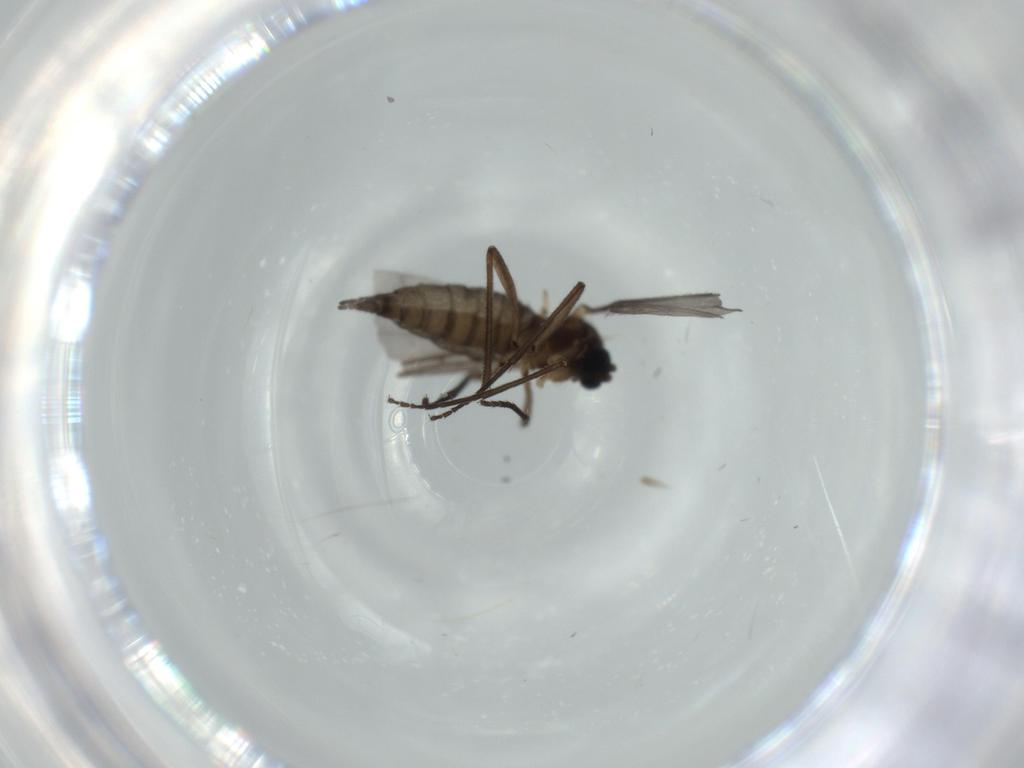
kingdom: Animalia
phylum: Arthropoda
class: Insecta
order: Diptera
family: Sciaridae
